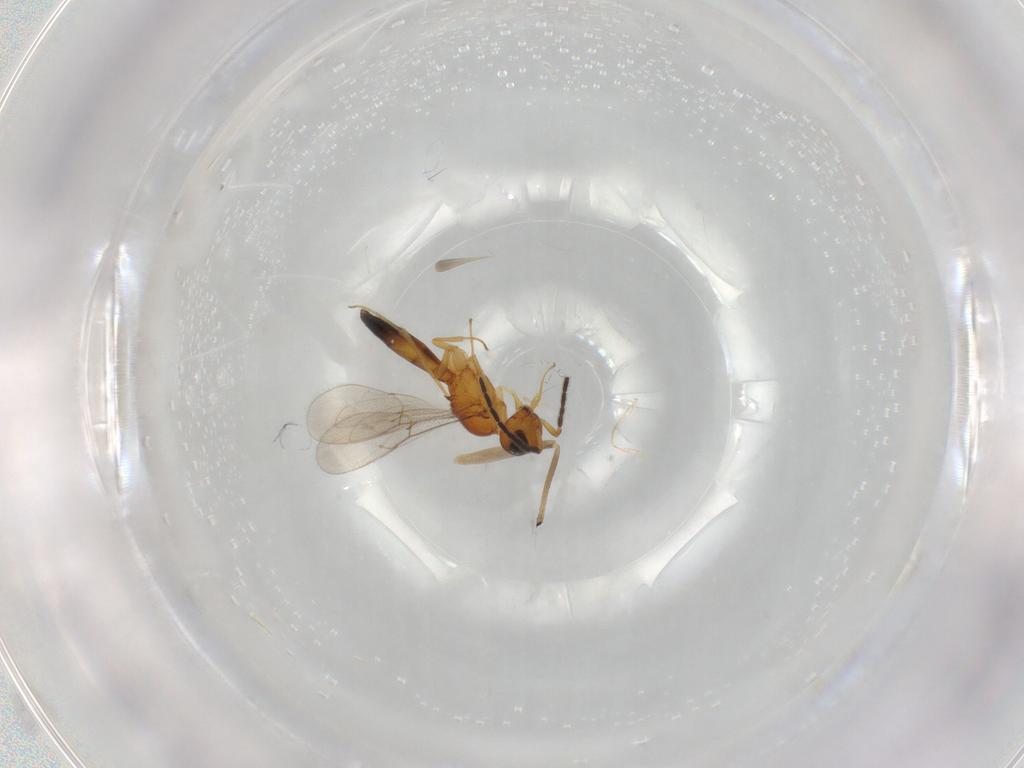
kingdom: Animalia
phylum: Arthropoda
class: Insecta
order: Hymenoptera
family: Scelionidae
